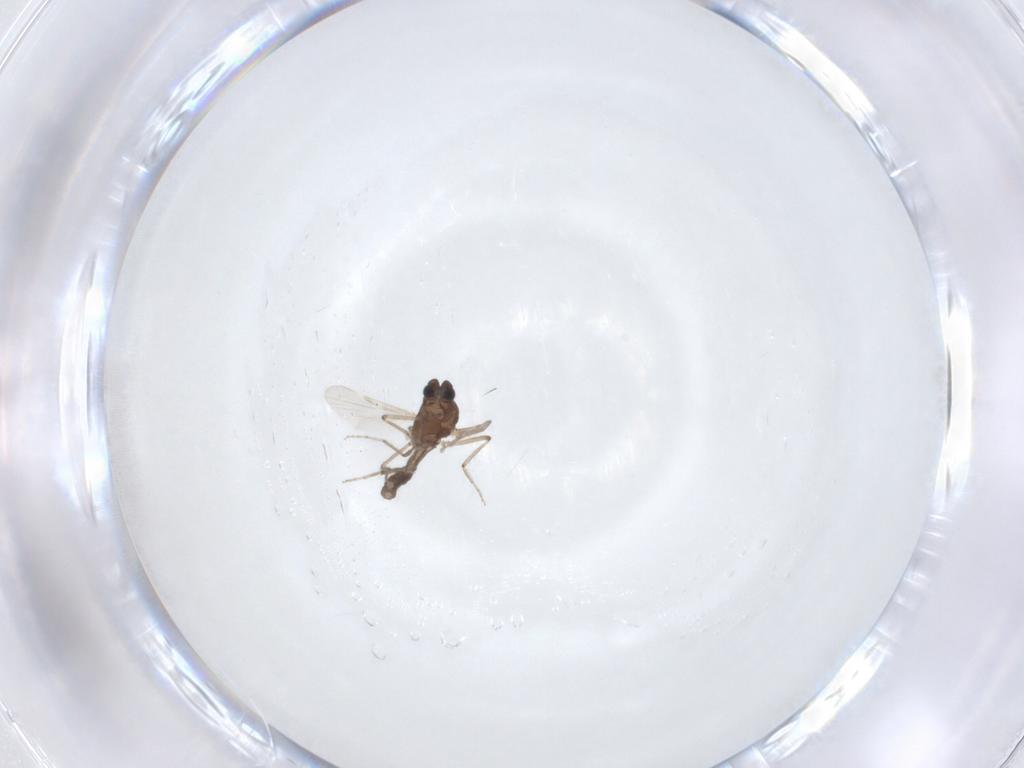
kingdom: Animalia
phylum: Arthropoda
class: Insecta
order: Diptera
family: Ceratopogonidae
